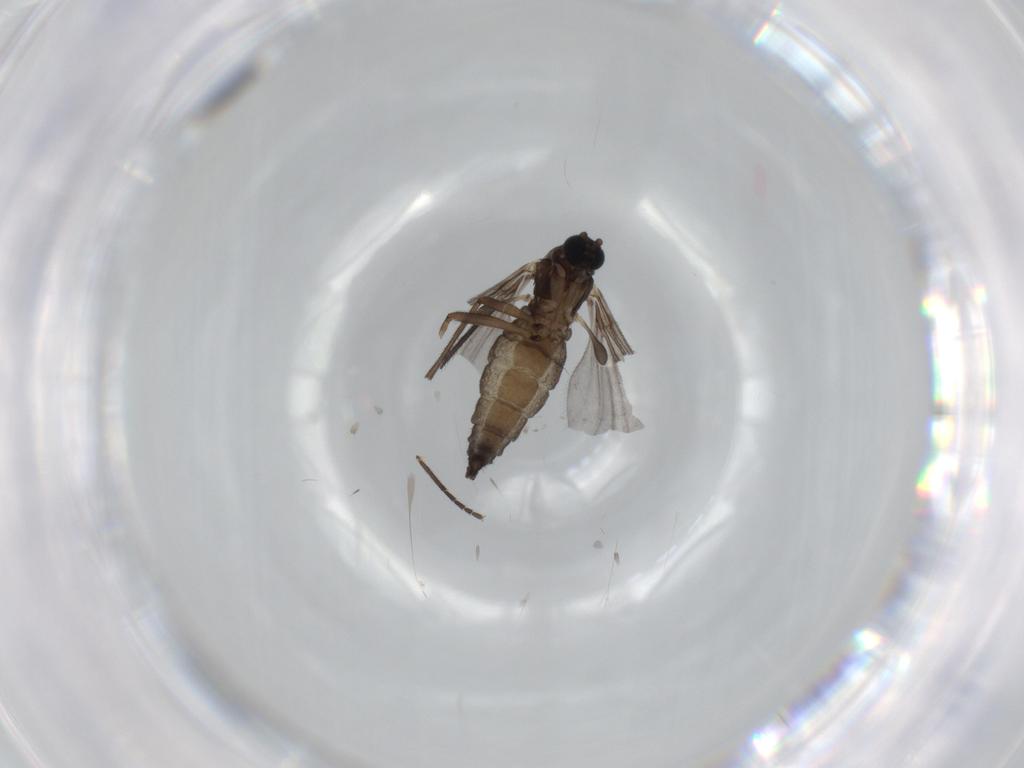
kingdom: Animalia
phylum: Arthropoda
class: Insecta
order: Diptera
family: Sciaridae
